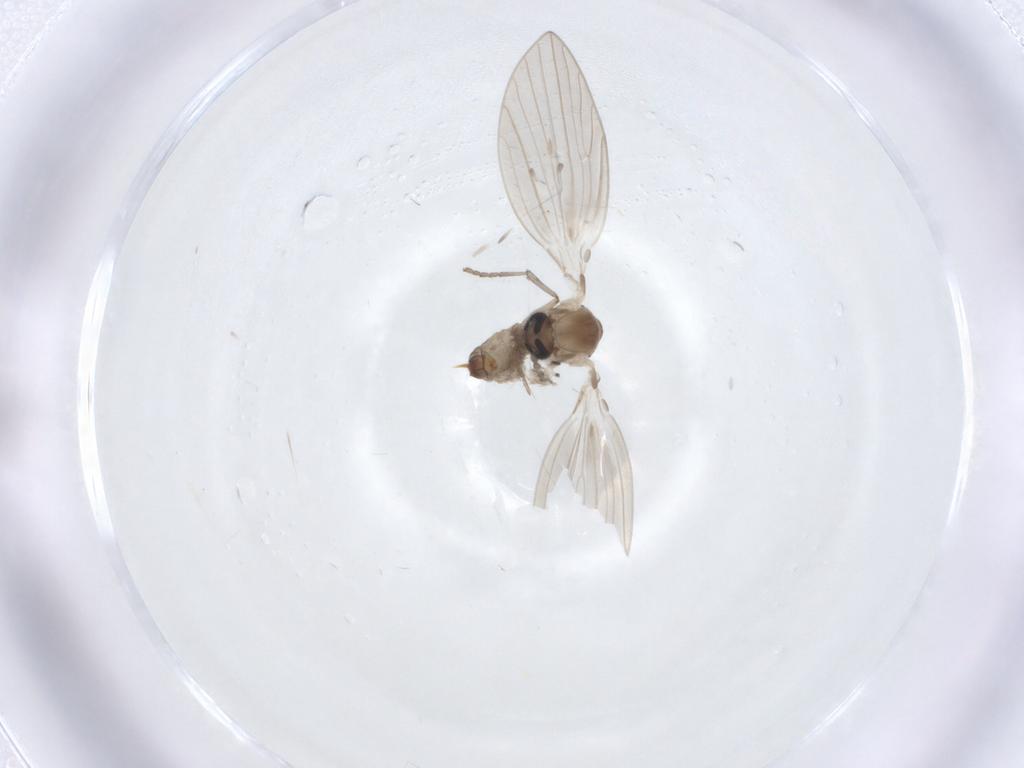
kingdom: Animalia
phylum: Arthropoda
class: Insecta
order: Diptera
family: Psychodidae
